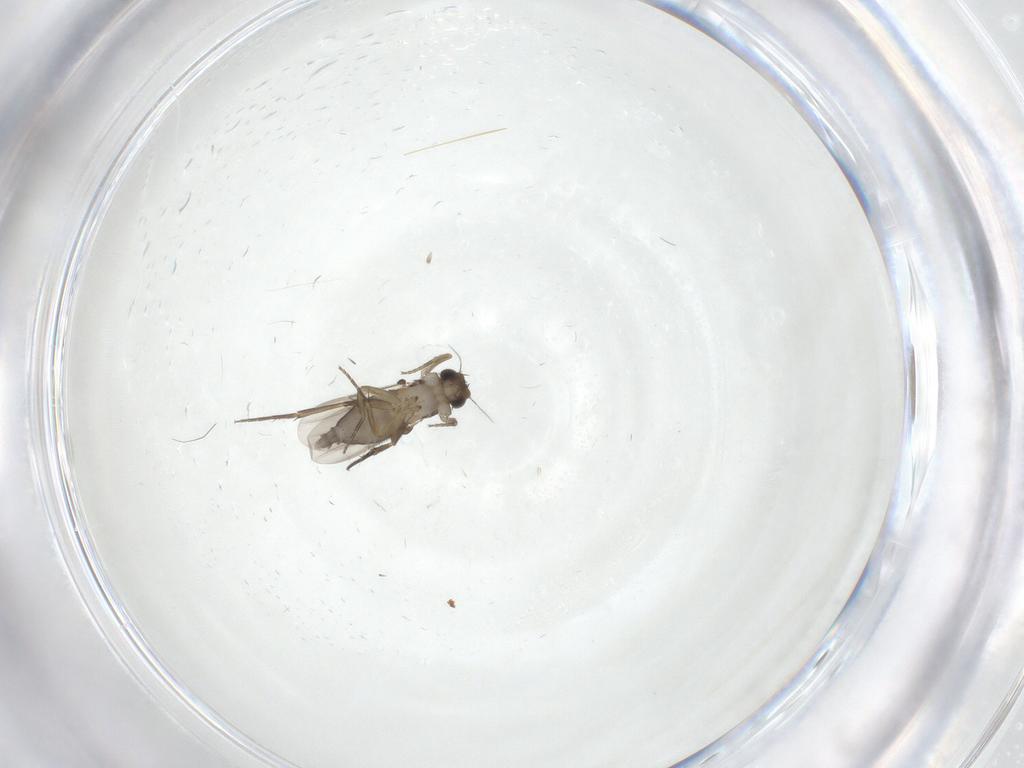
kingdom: Animalia
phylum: Arthropoda
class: Insecta
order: Diptera
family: Phoridae
